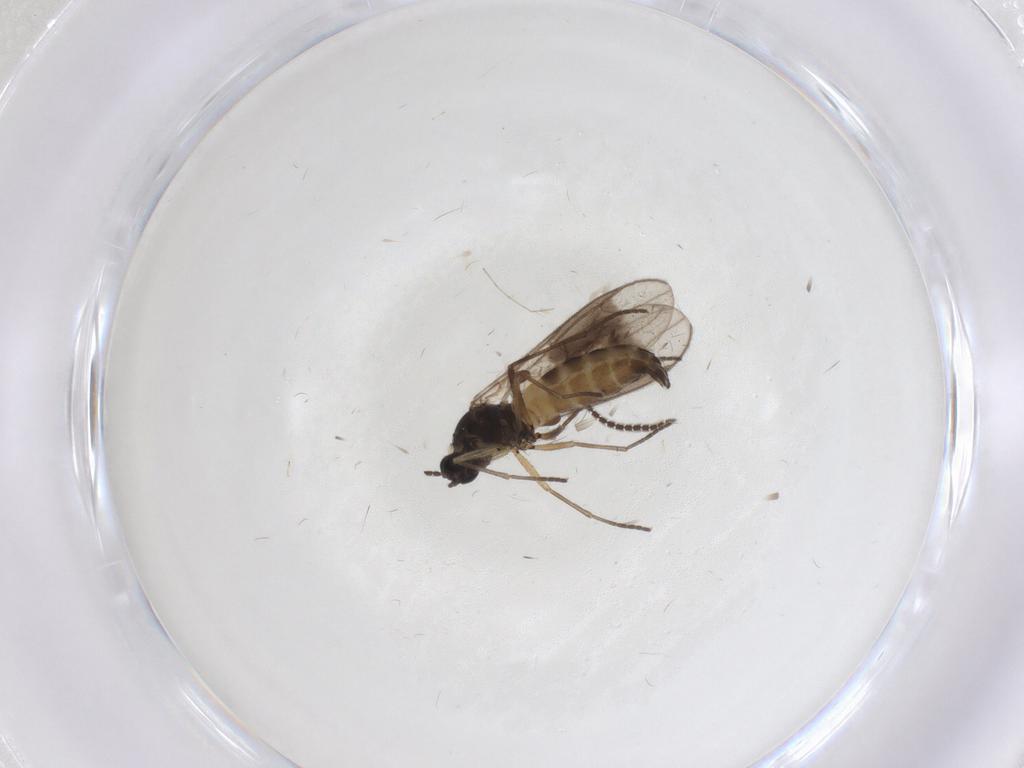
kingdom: Animalia
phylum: Arthropoda
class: Insecta
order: Diptera
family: Sciaridae
